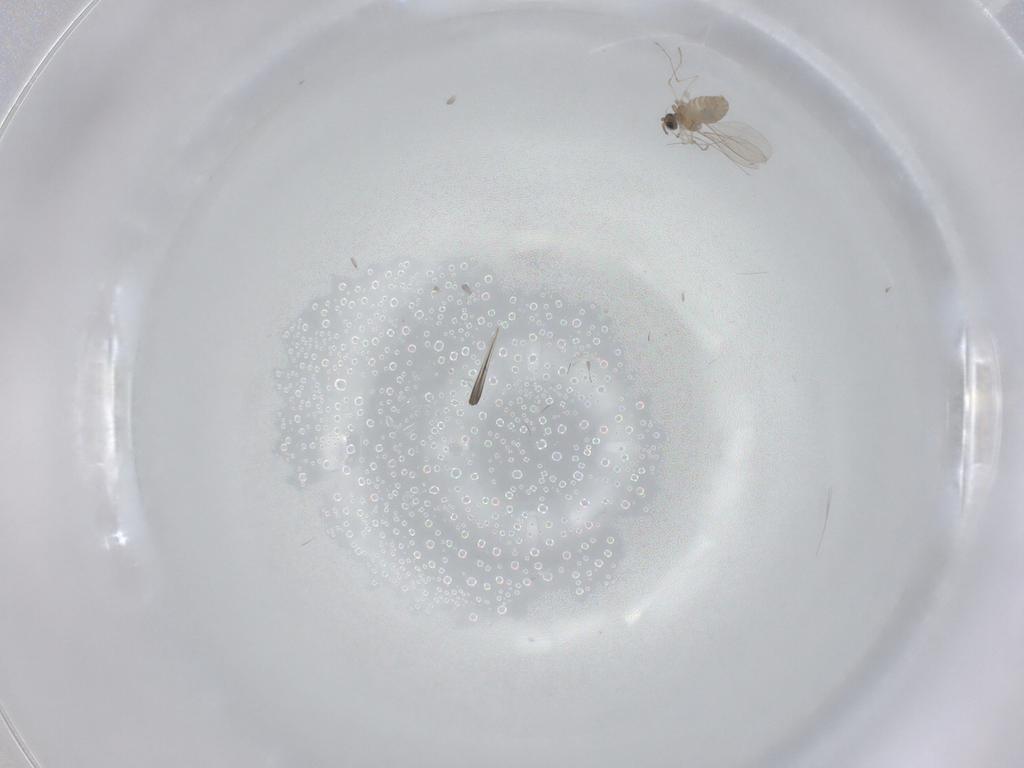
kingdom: Animalia
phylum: Arthropoda
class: Insecta
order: Diptera
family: Cecidomyiidae
